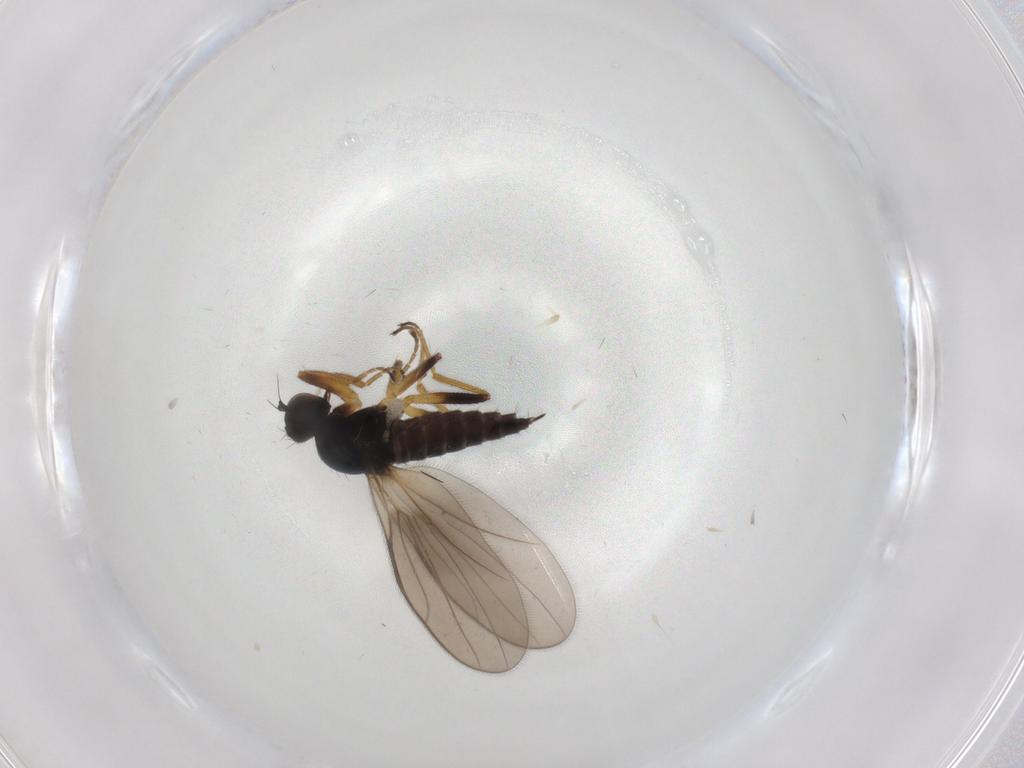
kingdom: Animalia
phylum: Arthropoda
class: Insecta
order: Diptera
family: Hybotidae
